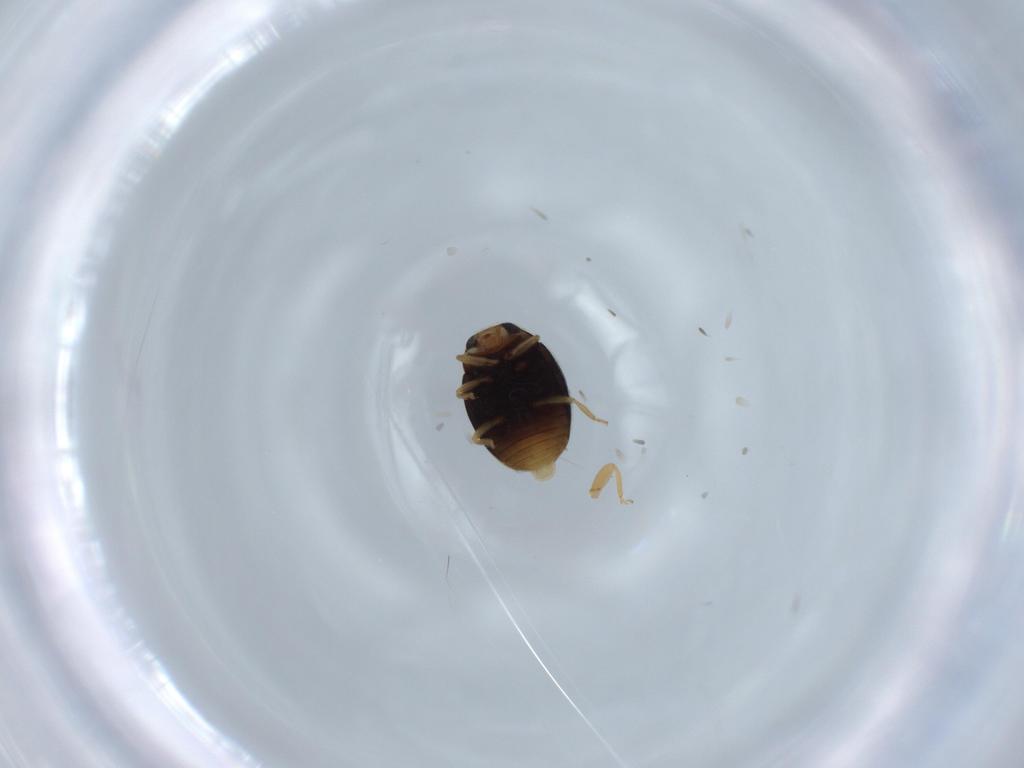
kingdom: Animalia
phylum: Arthropoda
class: Insecta
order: Coleoptera
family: Coccinellidae
